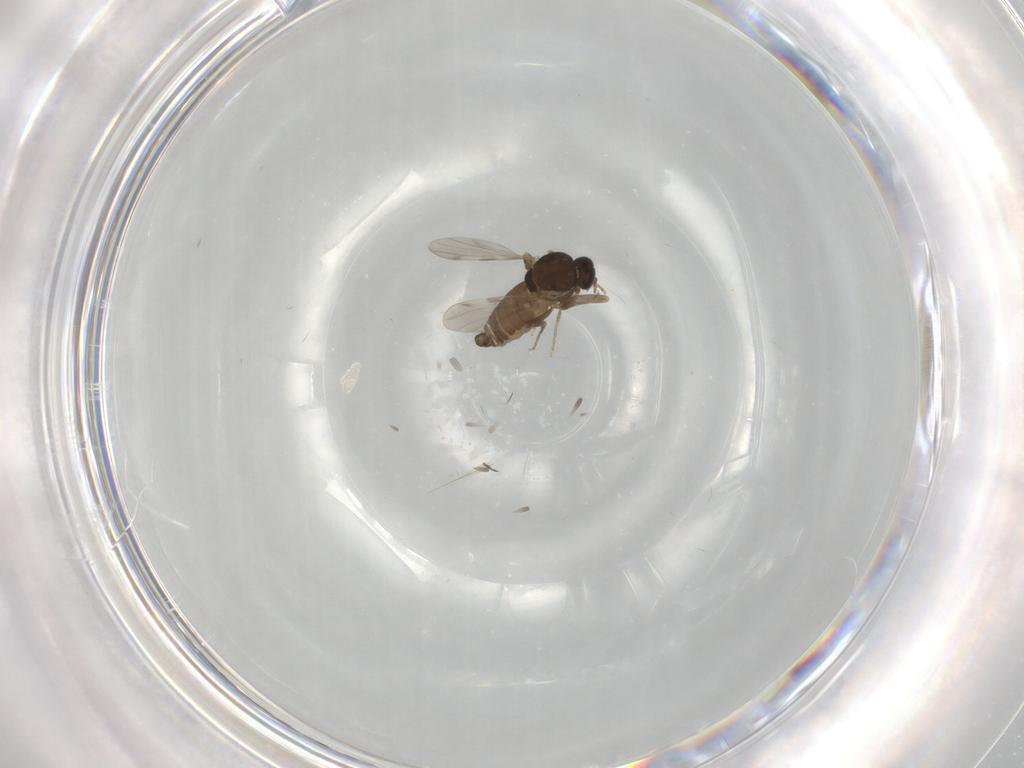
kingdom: Animalia
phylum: Arthropoda
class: Insecta
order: Diptera
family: Ceratopogonidae
